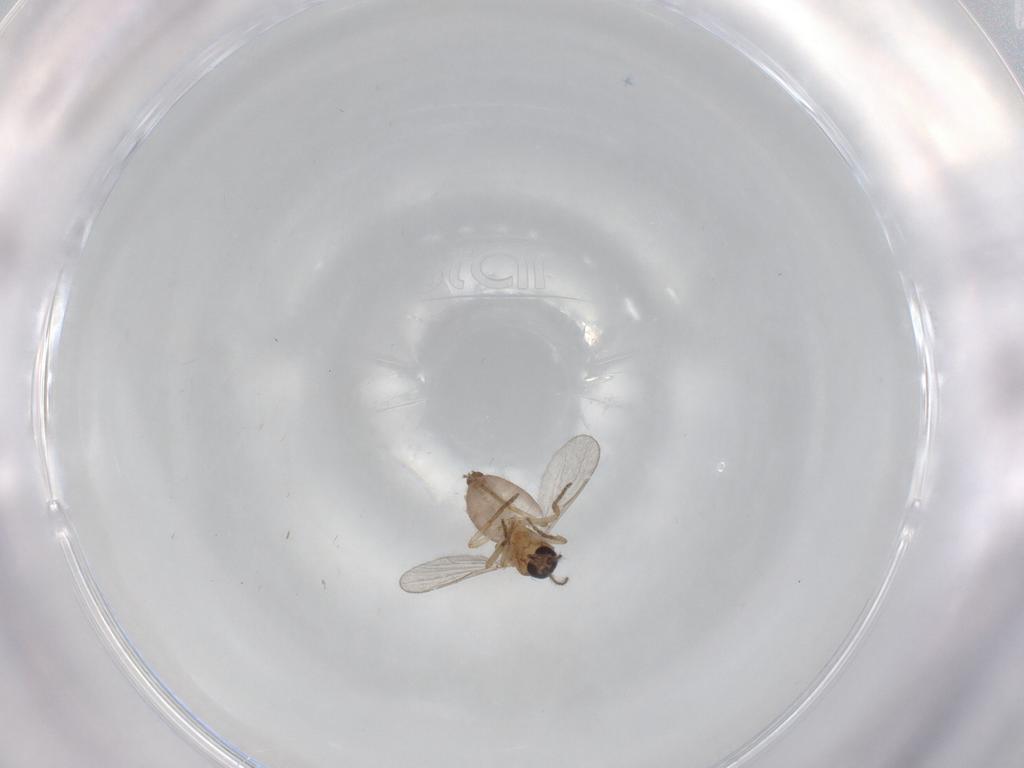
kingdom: Animalia
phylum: Arthropoda
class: Insecta
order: Diptera
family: Ceratopogonidae
